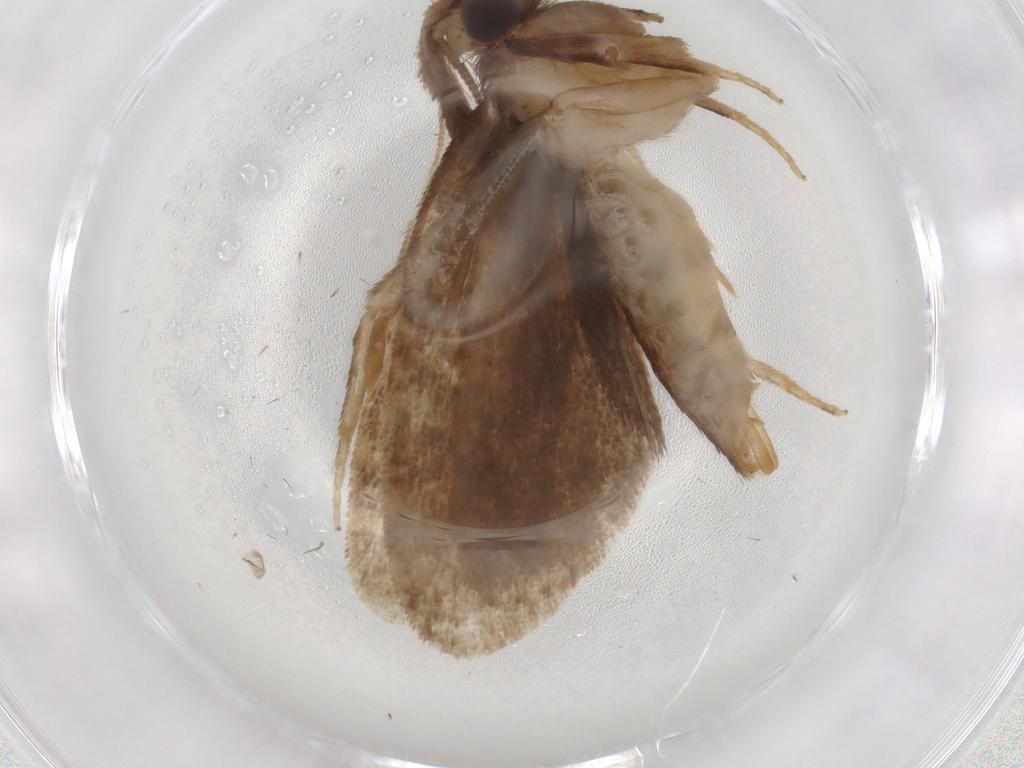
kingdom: Animalia
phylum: Arthropoda
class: Insecta
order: Lepidoptera
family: Tineidae
